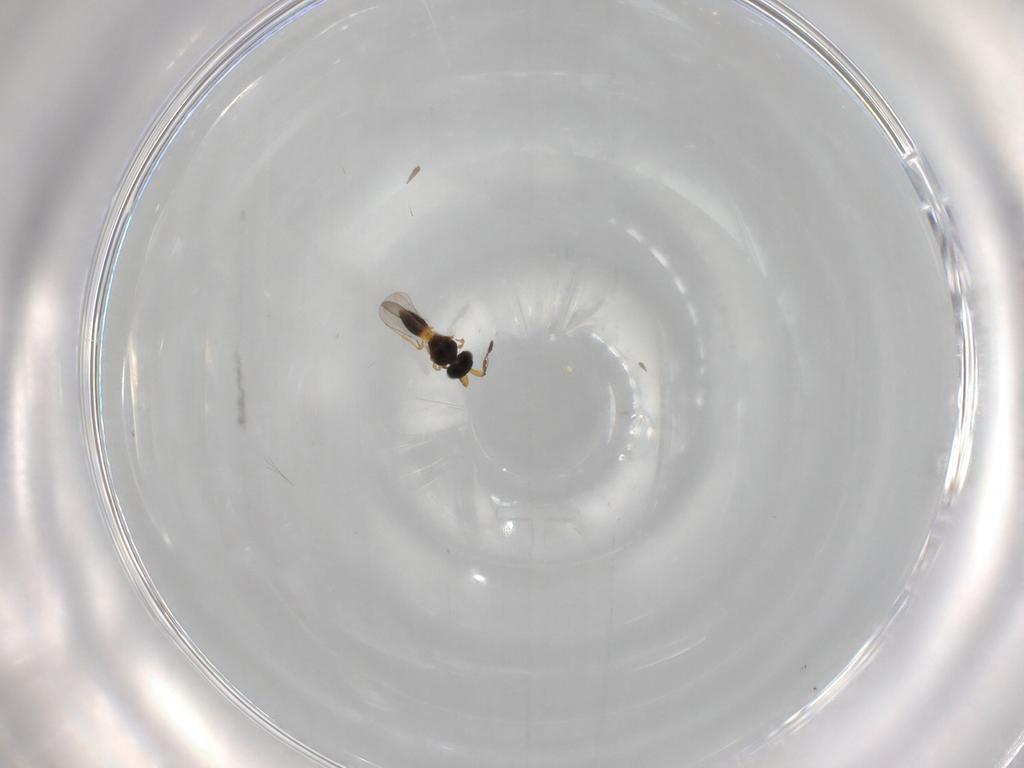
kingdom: Animalia
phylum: Arthropoda
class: Insecta
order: Hymenoptera
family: Platygastridae
